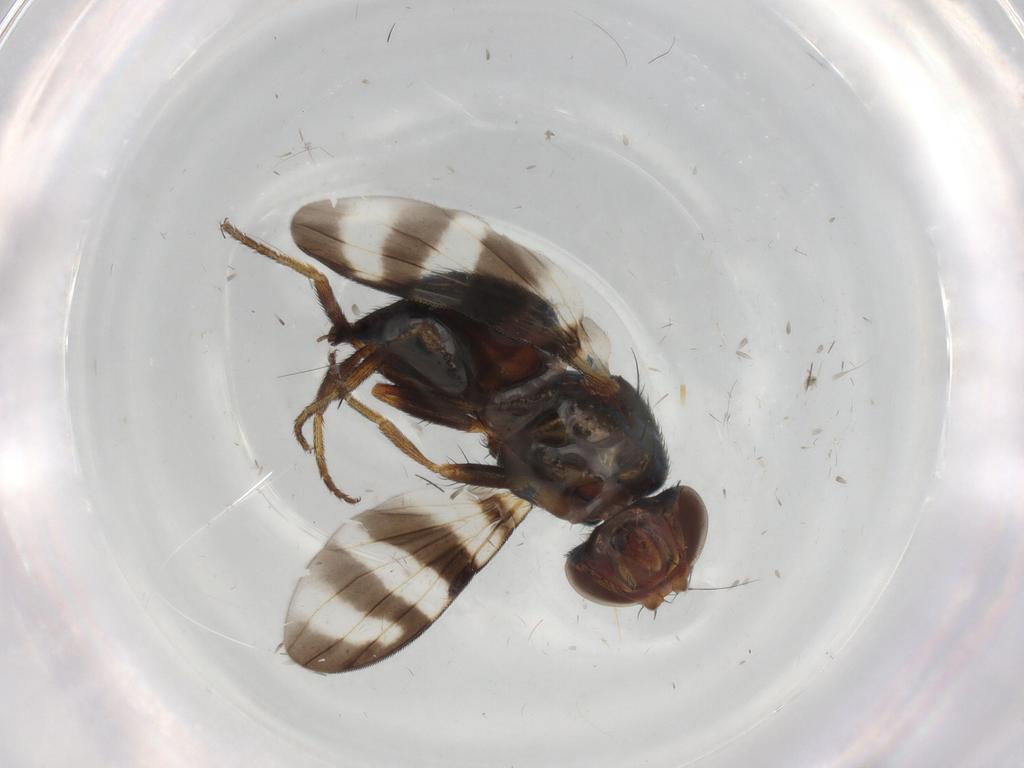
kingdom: Animalia
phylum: Arthropoda
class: Insecta
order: Diptera
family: Ulidiidae
